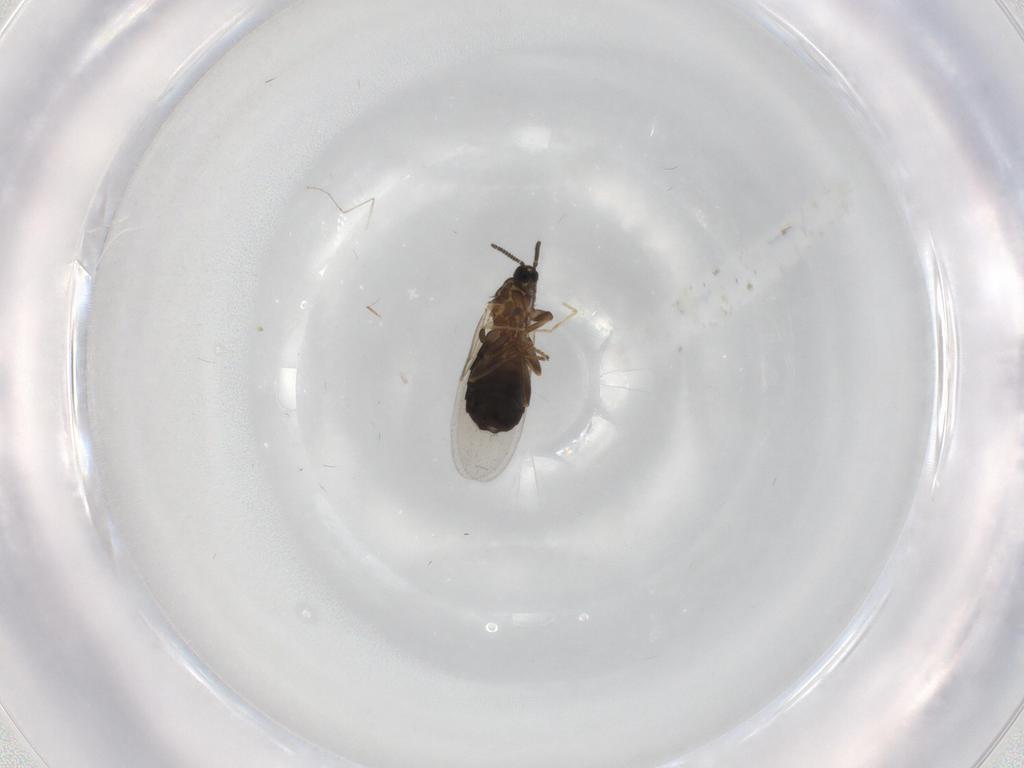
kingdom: Animalia
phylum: Arthropoda
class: Insecta
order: Diptera
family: Scatopsidae
